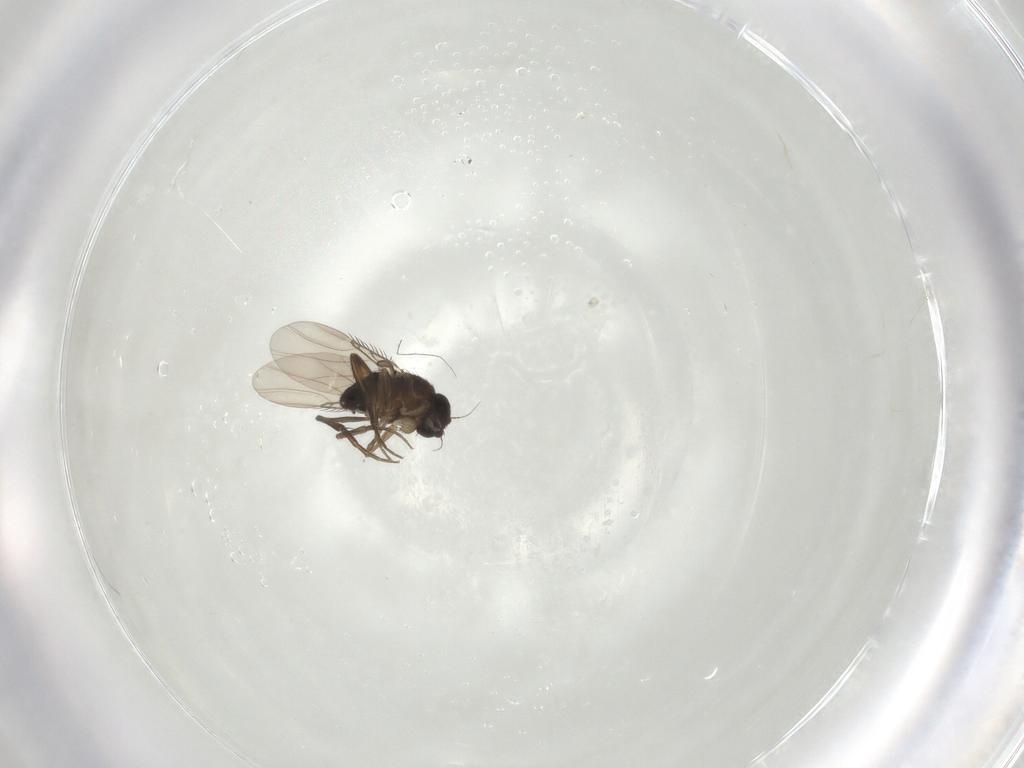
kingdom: Animalia
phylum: Arthropoda
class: Insecta
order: Diptera
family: Phoridae
